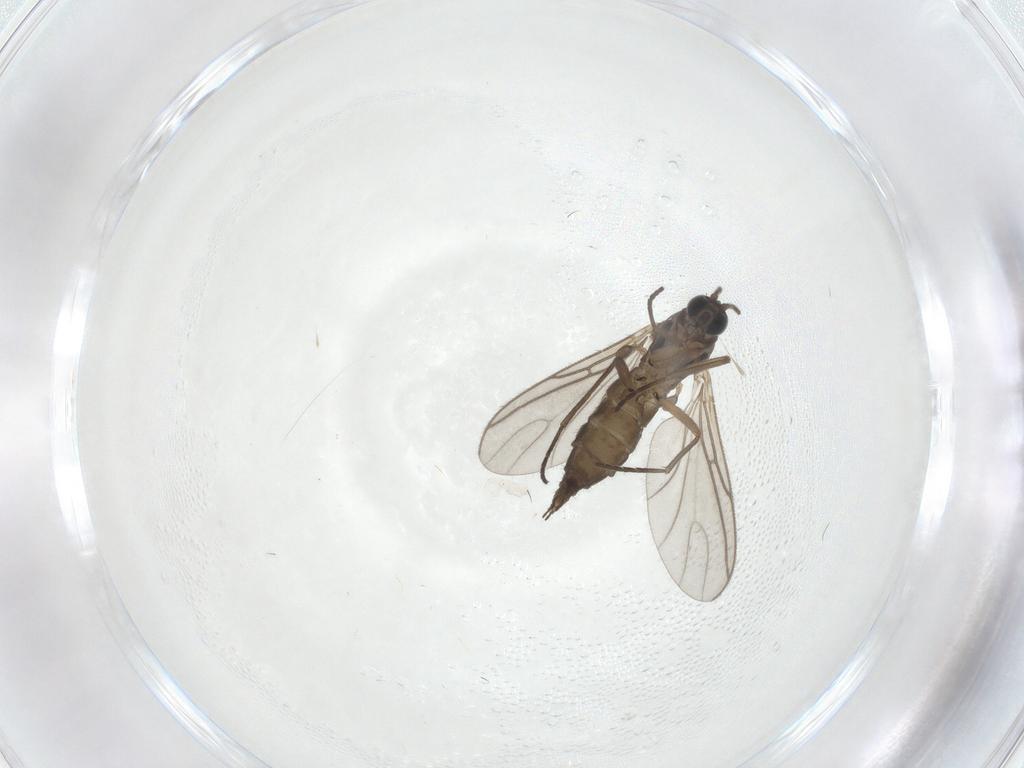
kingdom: Animalia
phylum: Arthropoda
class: Insecta
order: Diptera
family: Sciaridae
